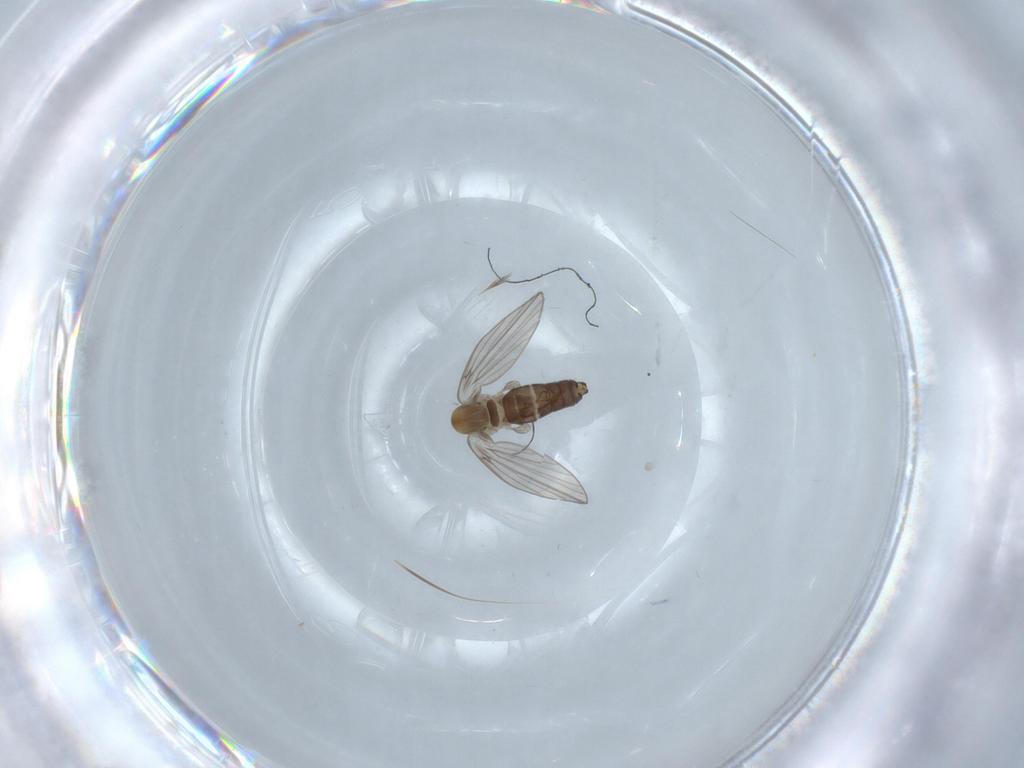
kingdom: Animalia
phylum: Arthropoda
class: Insecta
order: Diptera
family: Psychodidae
